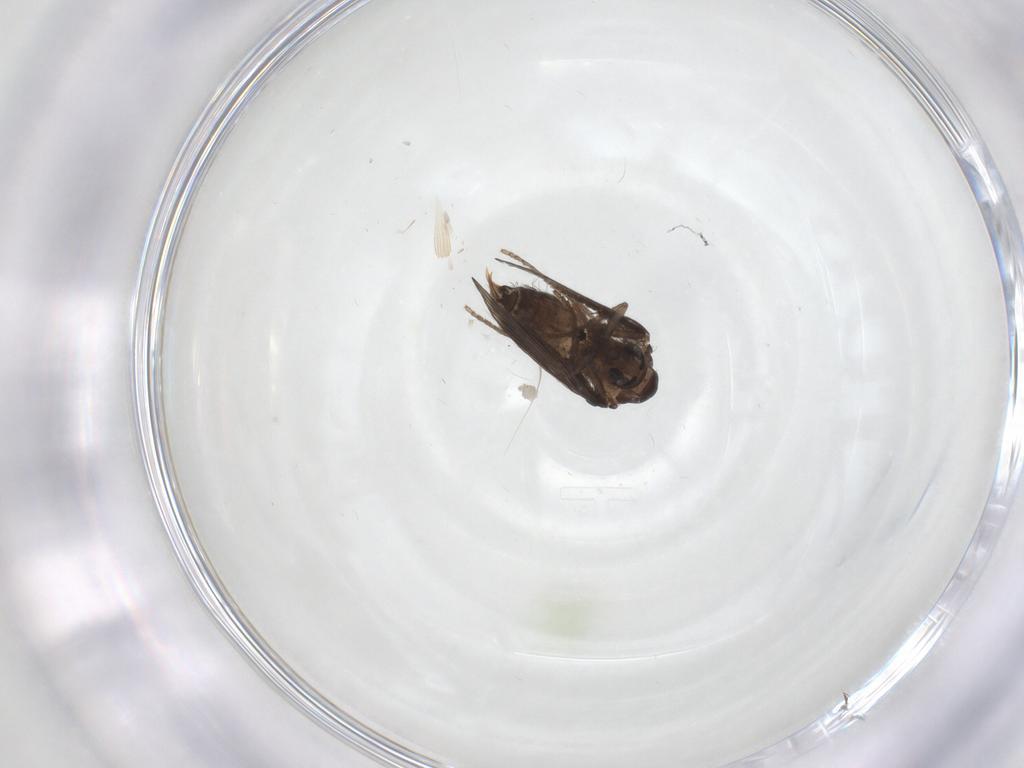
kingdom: Animalia
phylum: Arthropoda
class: Insecta
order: Diptera
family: Psychodidae
